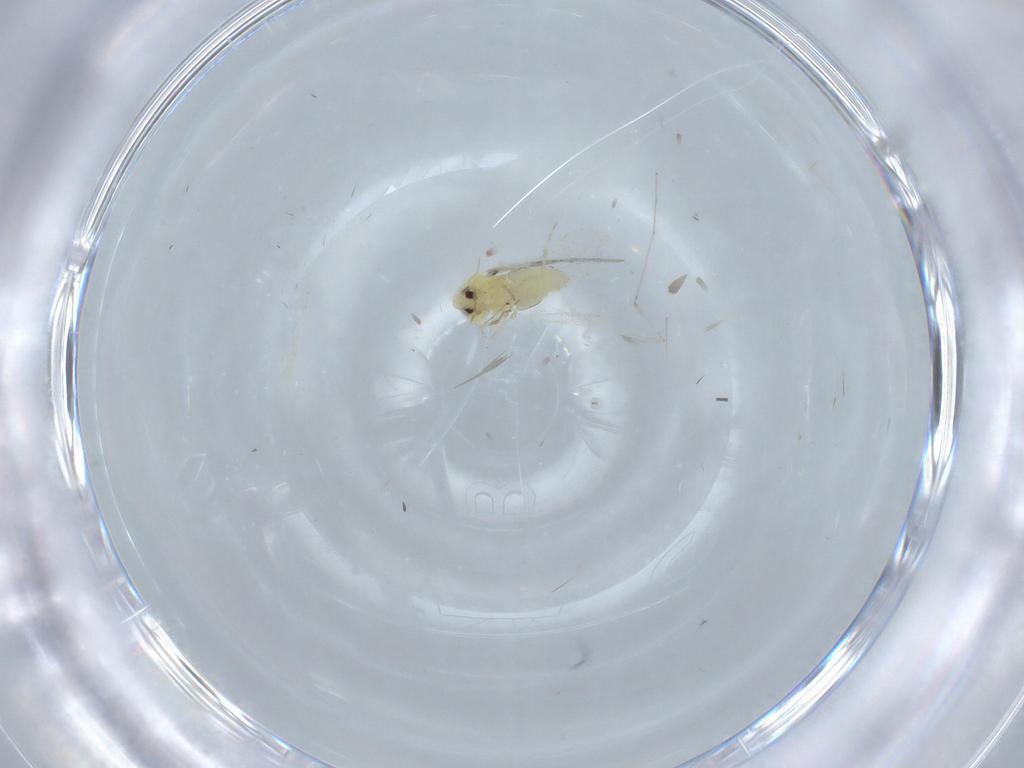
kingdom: Animalia
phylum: Arthropoda
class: Insecta
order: Hemiptera
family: Aleyrodidae
